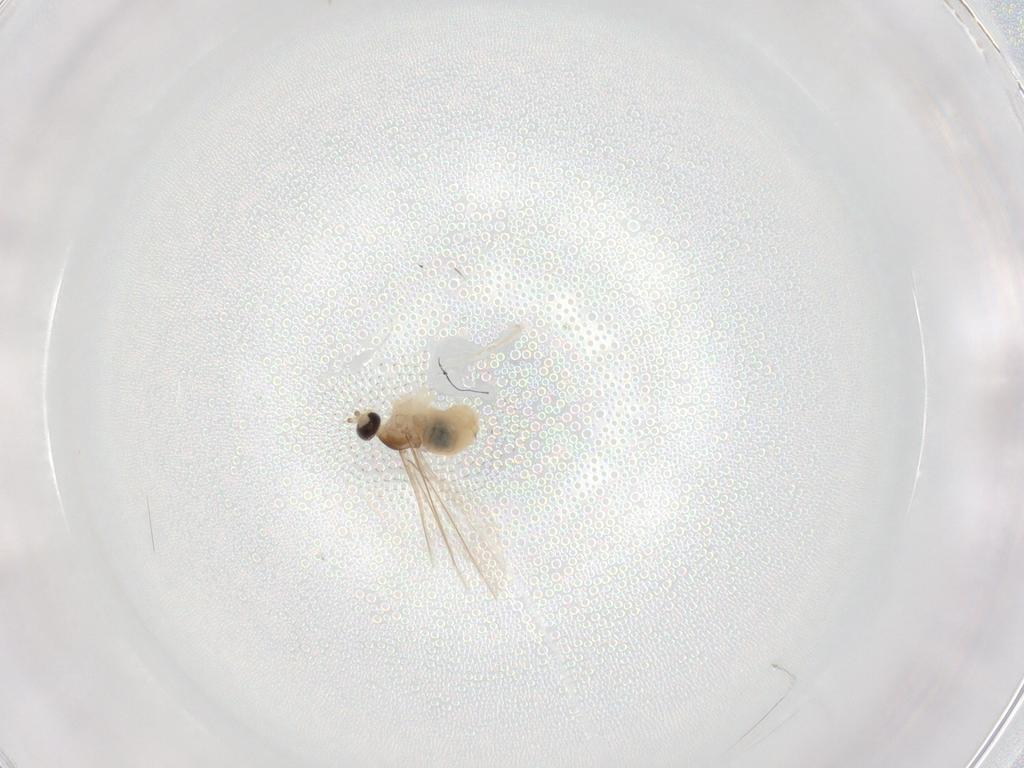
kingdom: Animalia
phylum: Arthropoda
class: Insecta
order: Diptera
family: Cecidomyiidae
